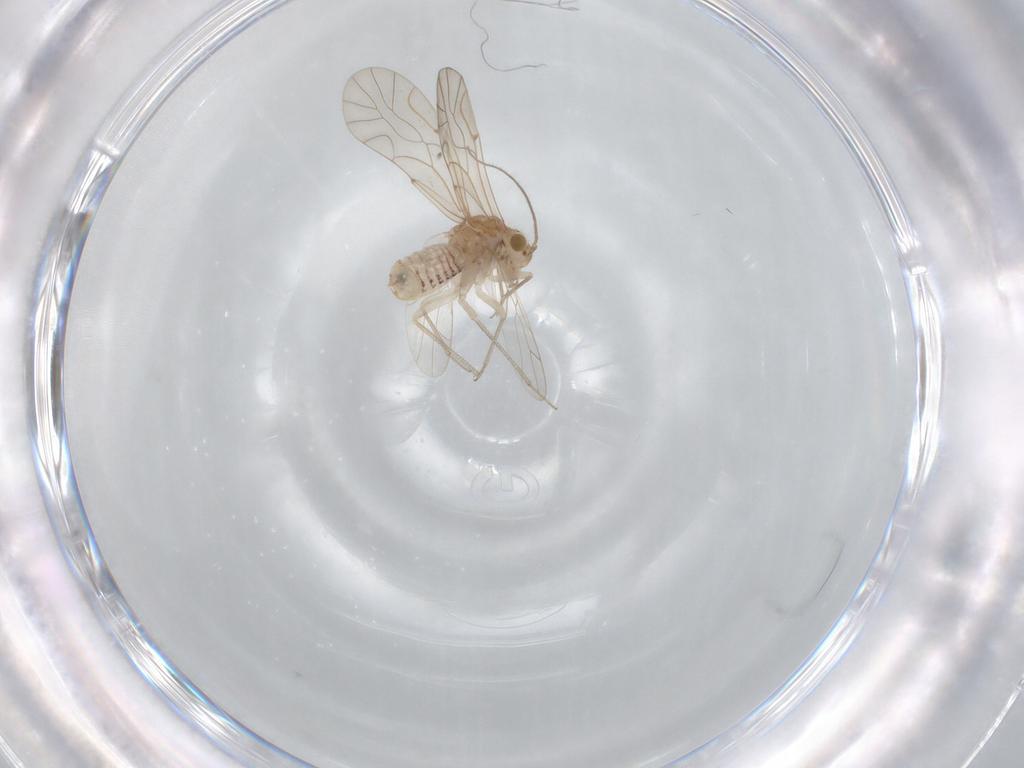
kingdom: Animalia
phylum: Arthropoda
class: Insecta
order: Psocodea
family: Lachesillidae
